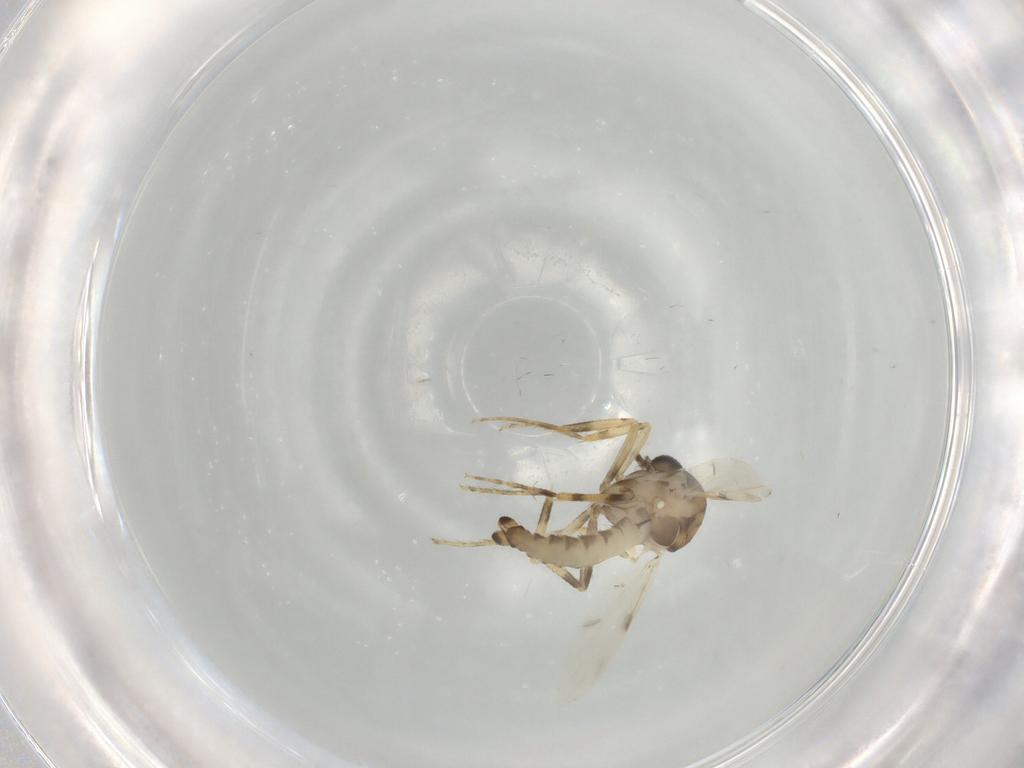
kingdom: Animalia
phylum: Arthropoda
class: Insecta
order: Diptera
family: Ceratopogonidae
